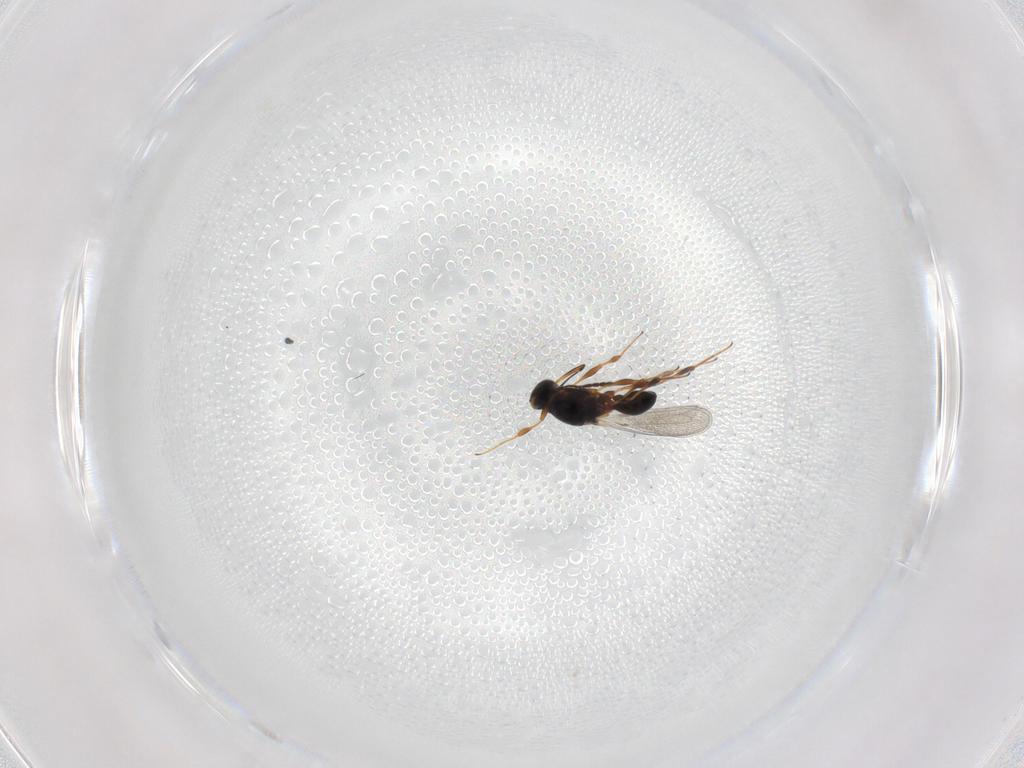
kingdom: Animalia
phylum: Arthropoda
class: Insecta
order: Hymenoptera
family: Platygastridae
